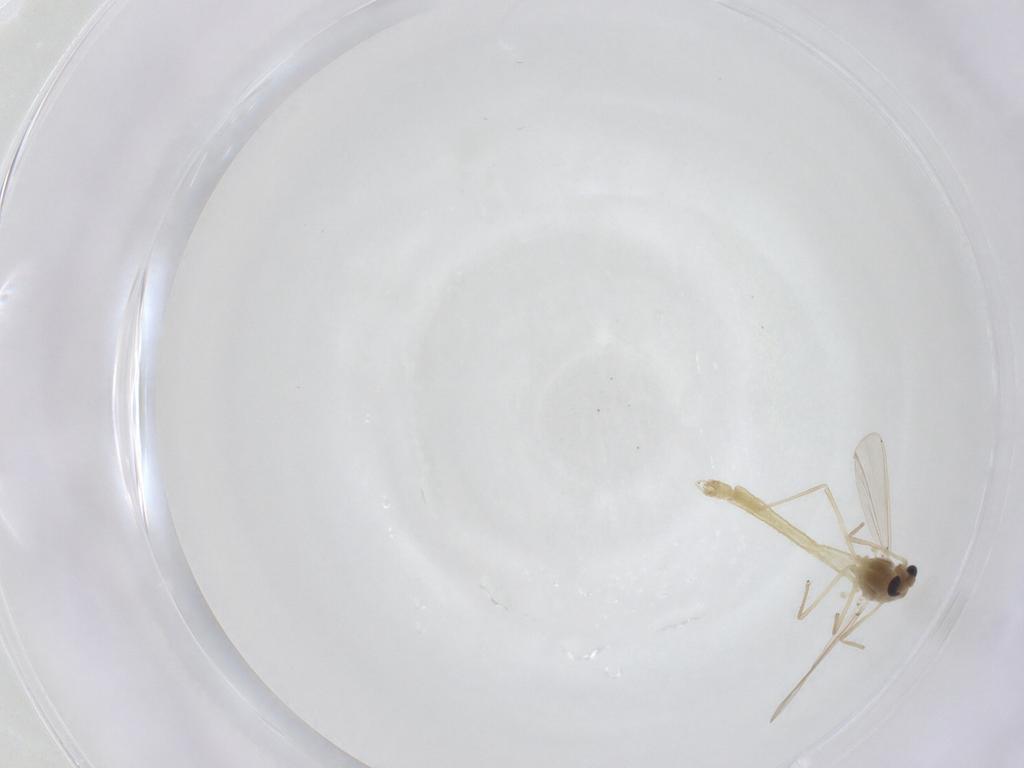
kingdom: Animalia
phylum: Arthropoda
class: Insecta
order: Diptera
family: Chironomidae
